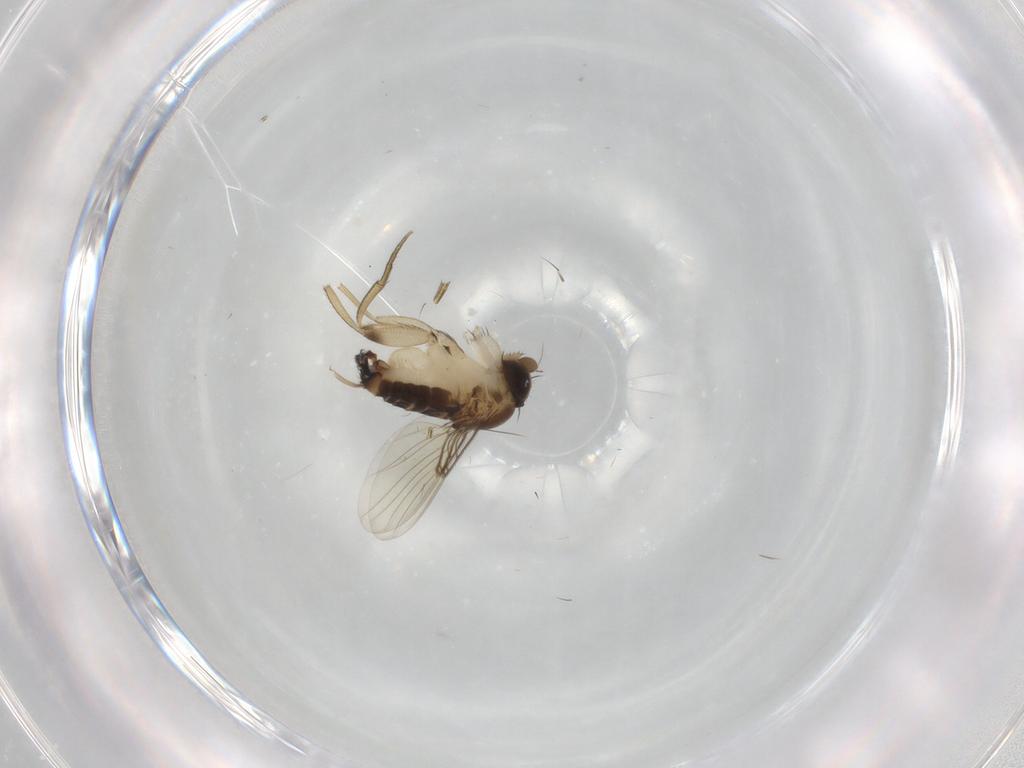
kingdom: Animalia
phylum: Arthropoda
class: Insecta
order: Diptera
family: Phoridae
